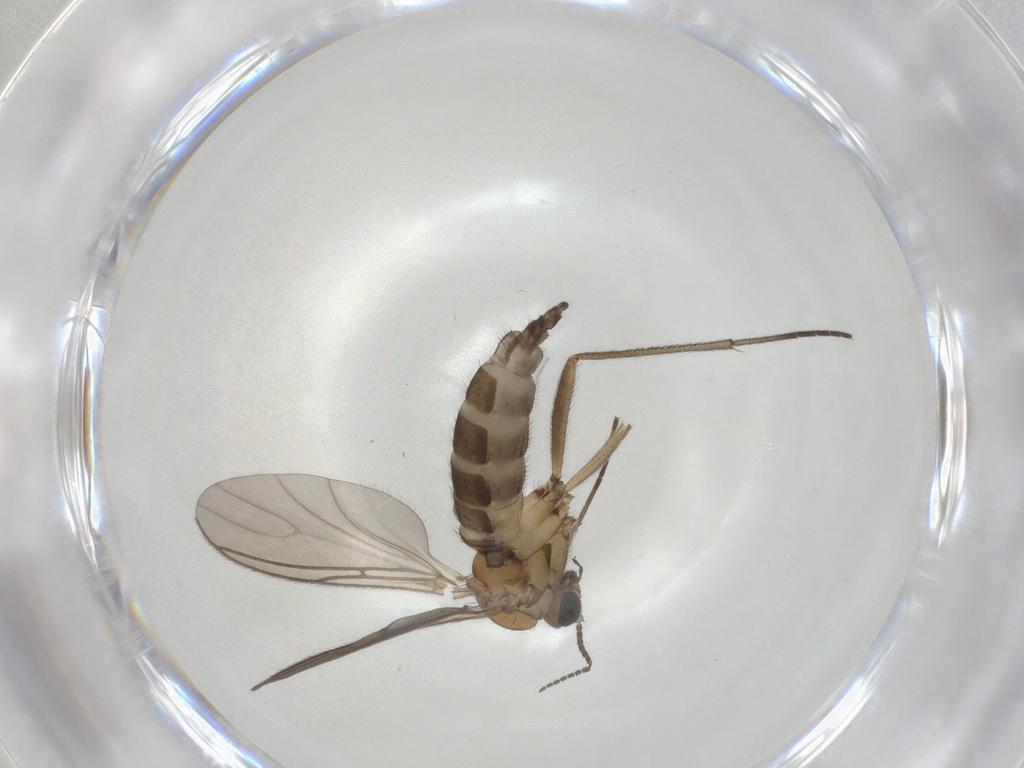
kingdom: Animalia
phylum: Arthropoda
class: Insecta
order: Diptera
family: Sciaridae
